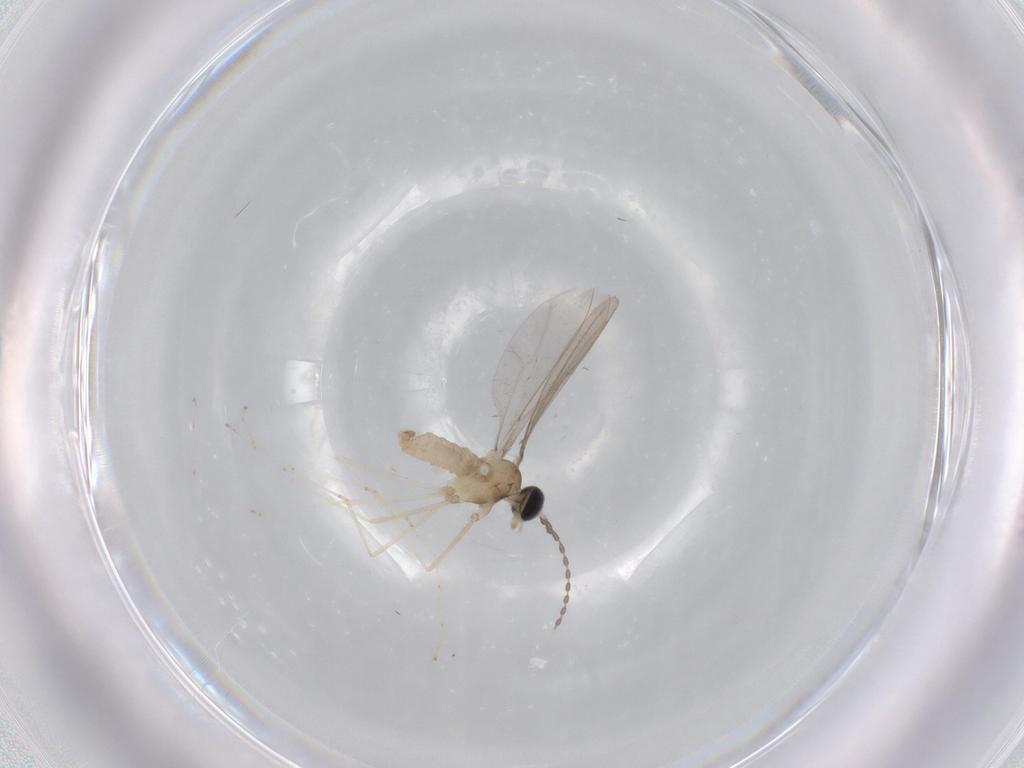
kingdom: Animalia
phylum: Arthropoda
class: Insecta
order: Diptera
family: Cecidomyiidae
